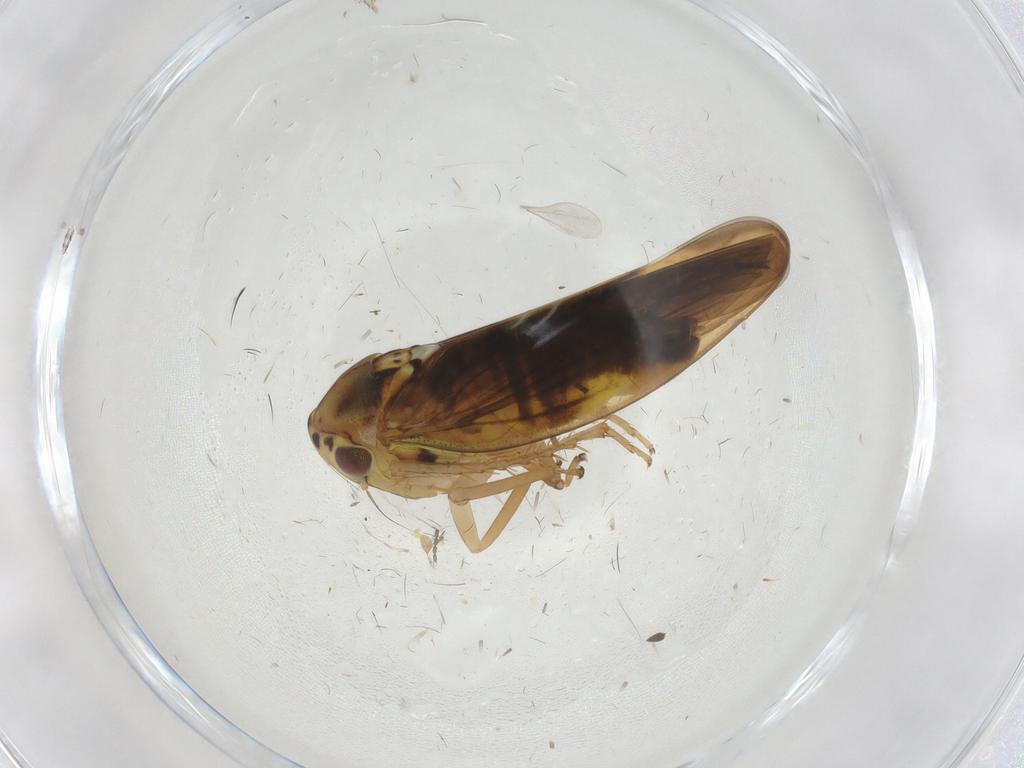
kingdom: Animalia
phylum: Arthropoda
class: Insecta
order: Hemiptera
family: Cicadellidae
